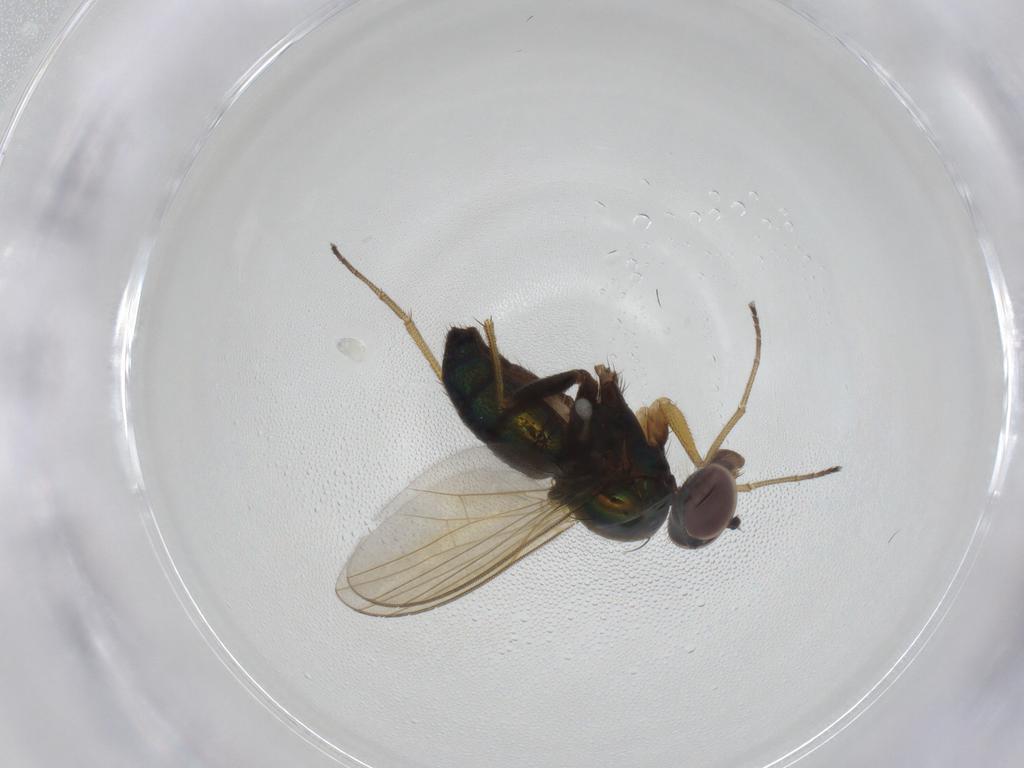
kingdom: Animalia
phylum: Arthropoda
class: Insecta
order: Diptera
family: Dolichopodidae
